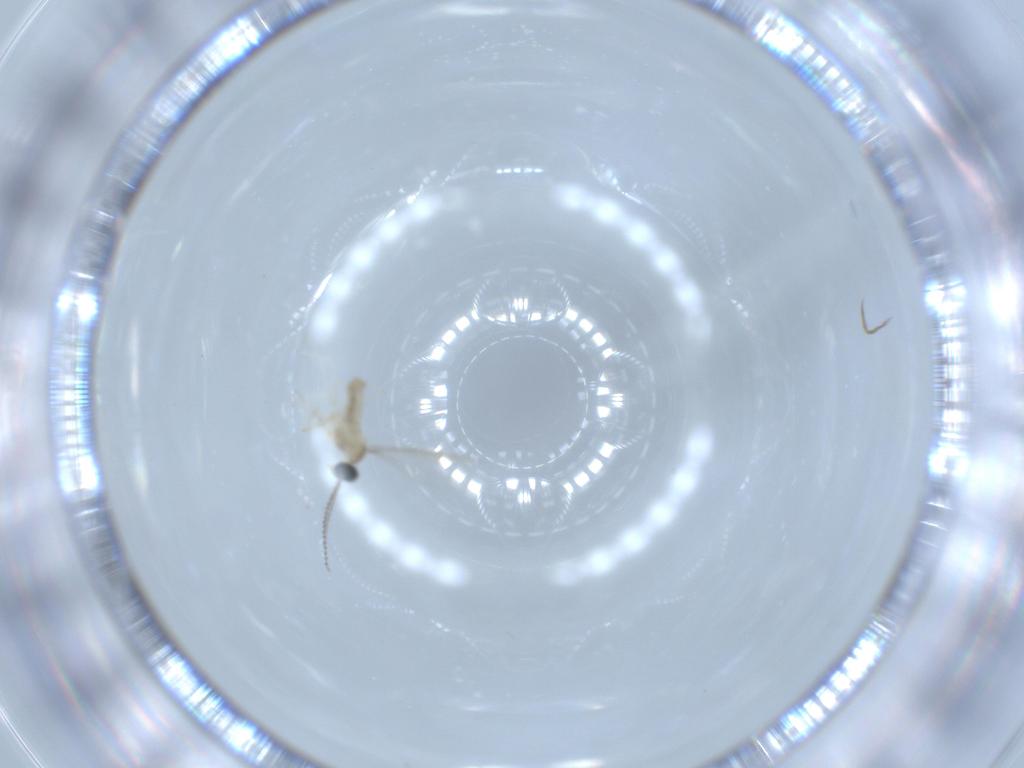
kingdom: Animalia
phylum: Arthropoda
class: Insecta
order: Diptera
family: Cecidomyiidae
